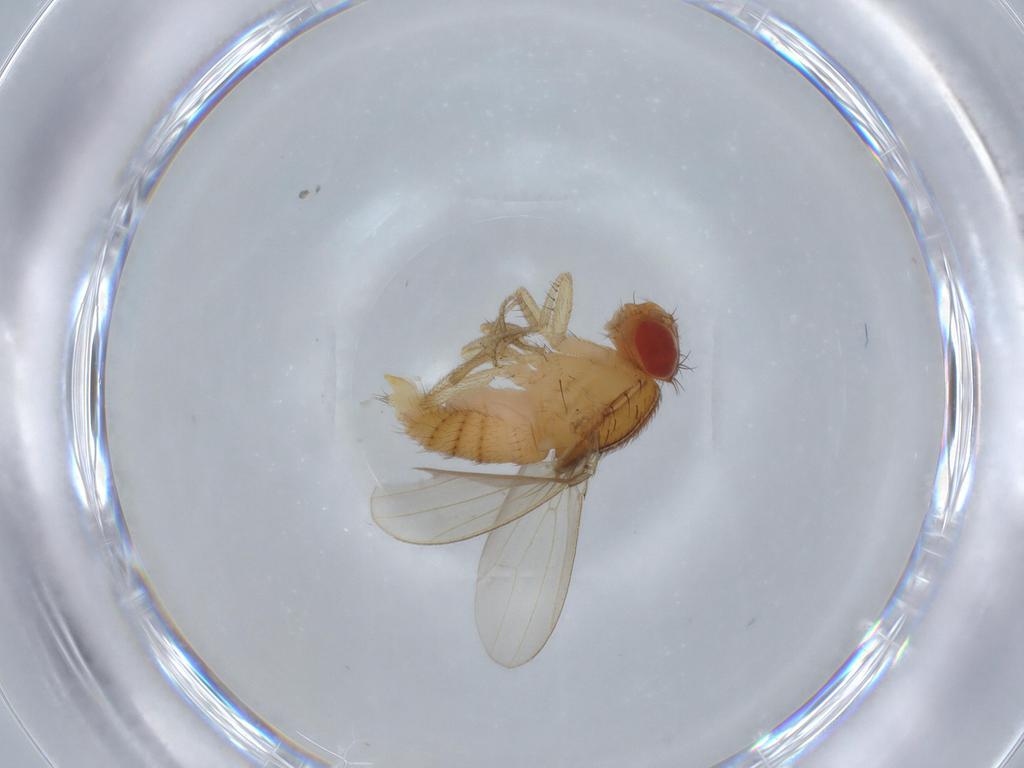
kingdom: Animalia
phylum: Arthropoda
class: Insecta
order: Diptera
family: Drosophilidae
